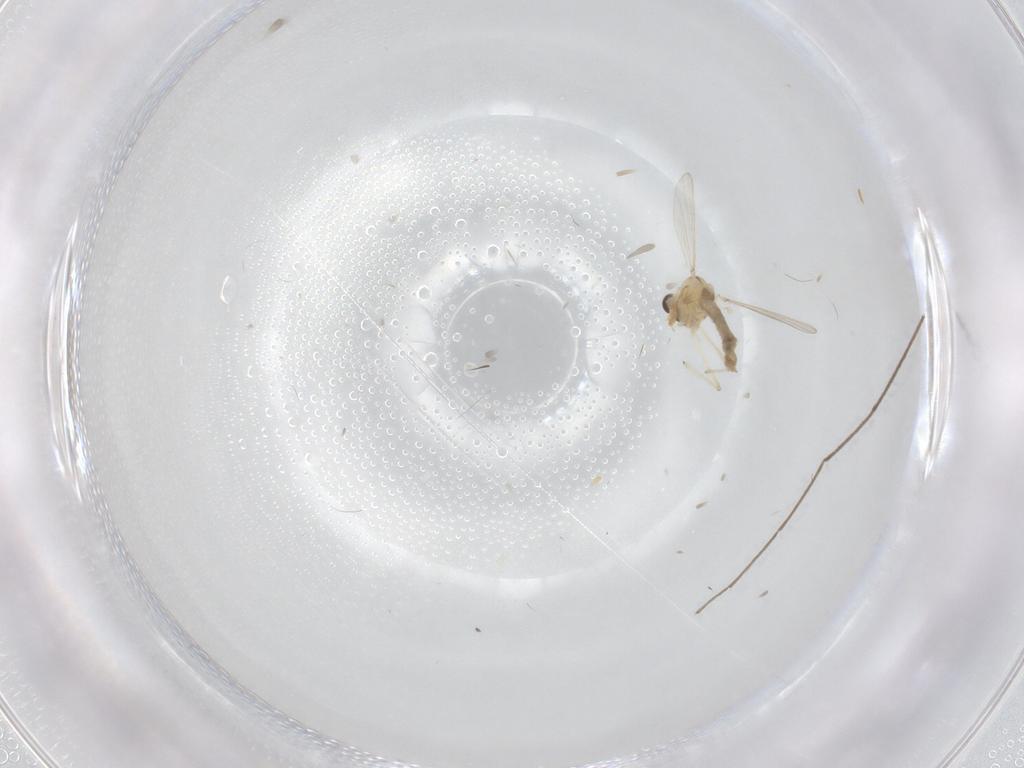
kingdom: Animalia
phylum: Arthropoda
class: Insecta
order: Diptera
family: Chironomidae
